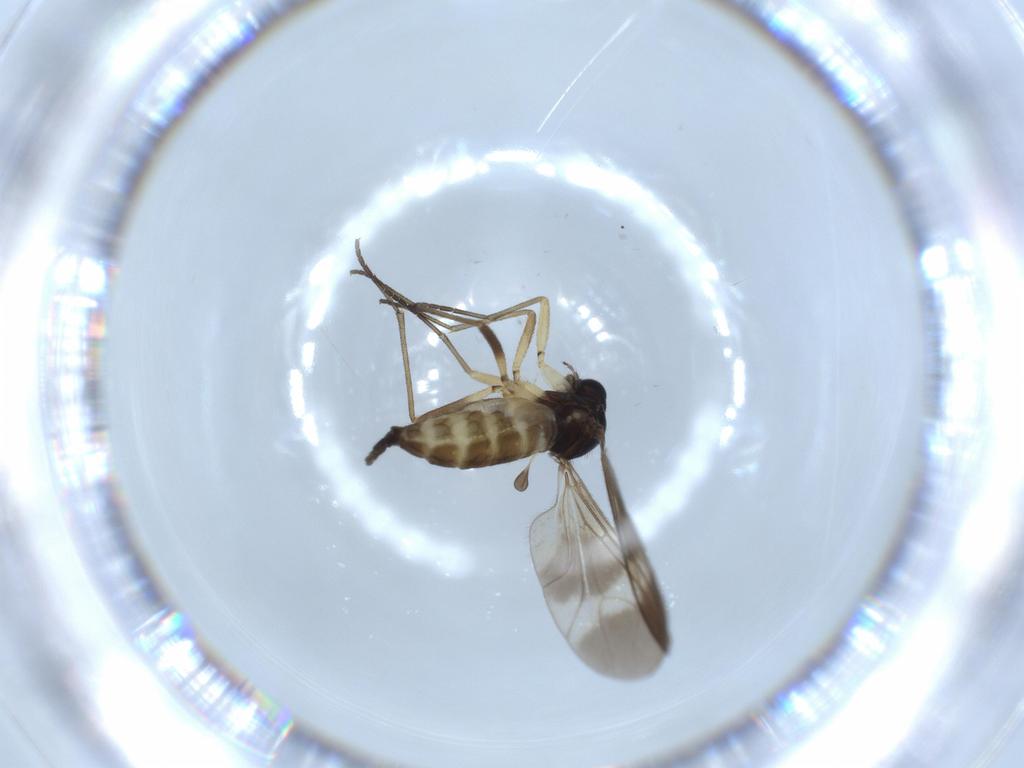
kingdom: Animalia
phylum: Arthropoda
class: Insecta
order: Diptera
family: Sciaridae
